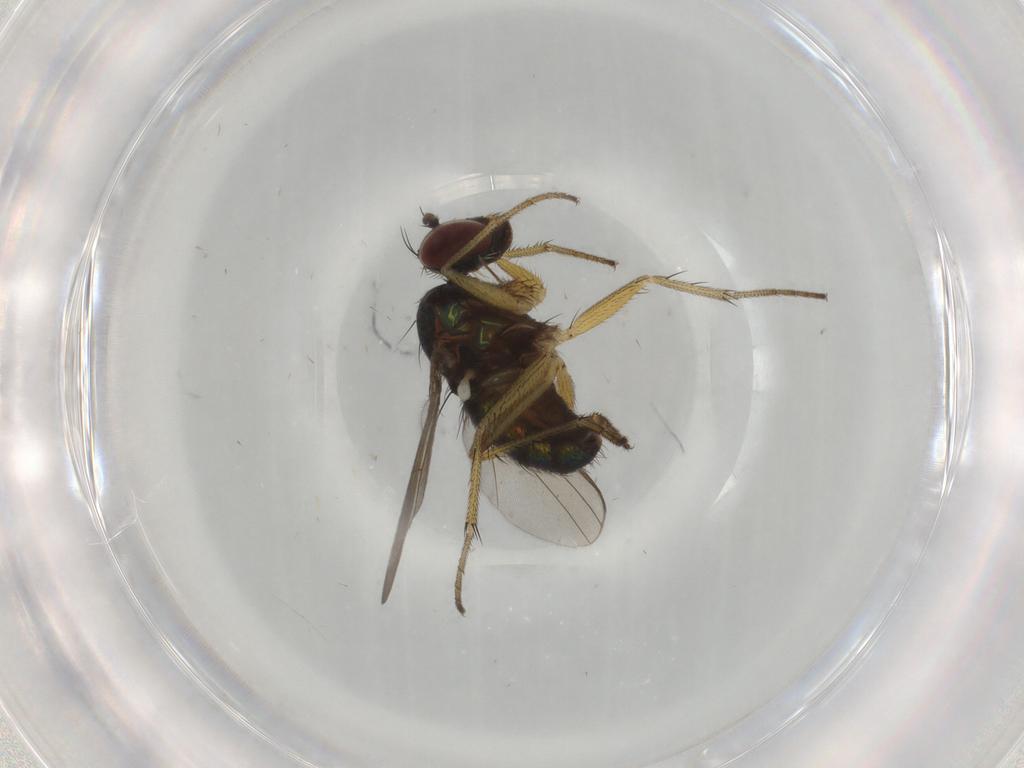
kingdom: Animalia
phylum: Arthropoda
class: Insecta
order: Diptera
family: Dolichopodidae
